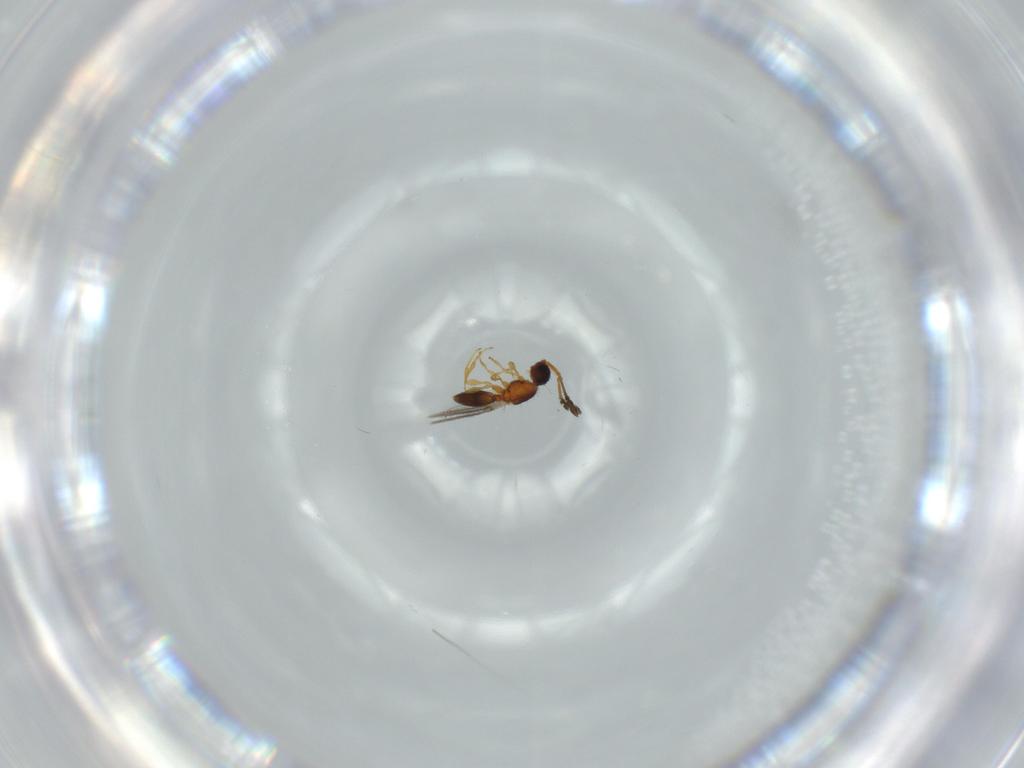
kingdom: Animalia
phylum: Arthropoda
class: Insecta
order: Hymenoptera
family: Diapriidae
